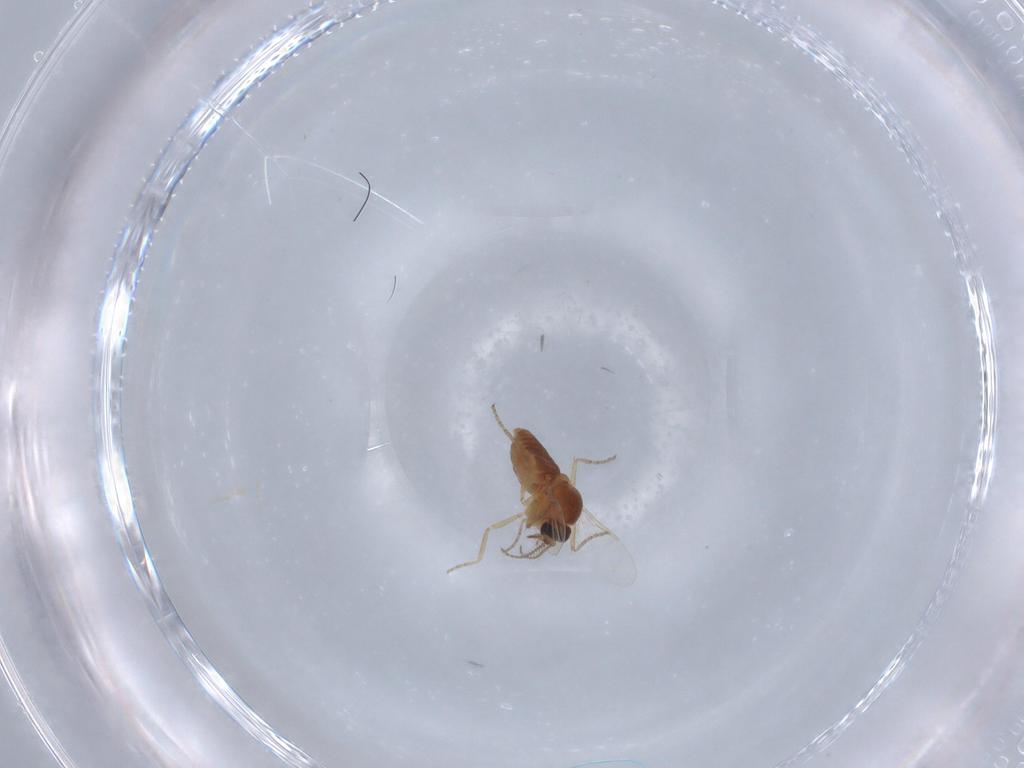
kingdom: Animalia
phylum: Arthropoda
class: Insecta
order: Diptera
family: Ceratopogonidae
